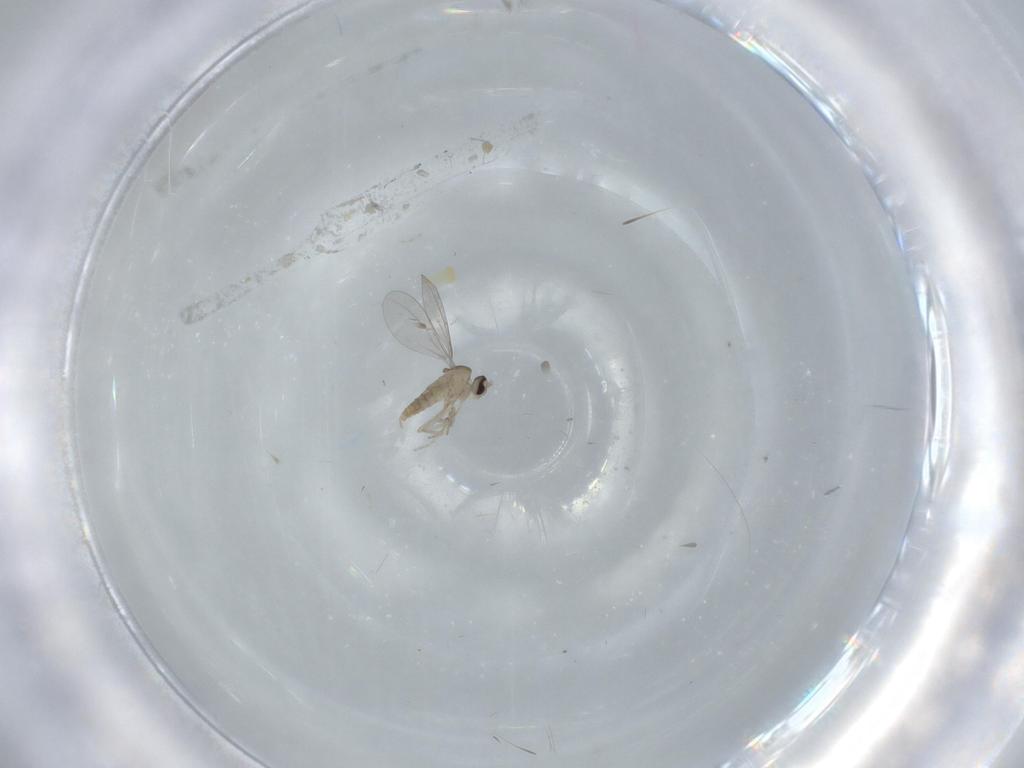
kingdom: Animalia
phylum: Arthropoda
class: Insecta
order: Diptera
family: Cecidomyiidae
